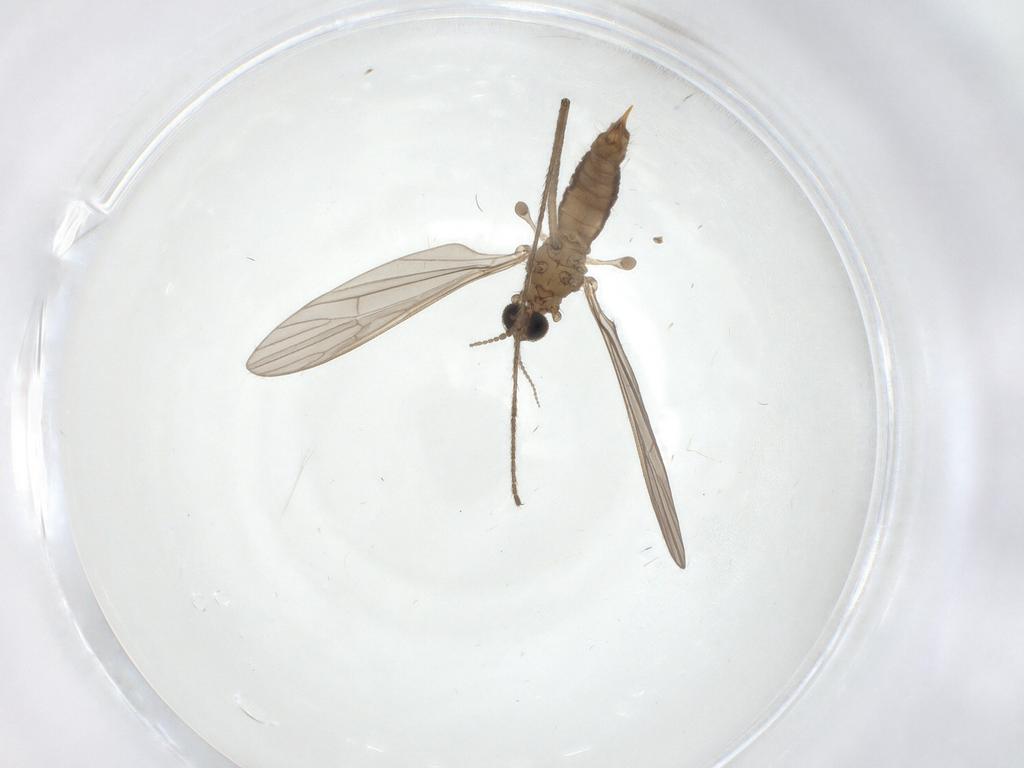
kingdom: Animalia
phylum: Arthropoda
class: Insecta
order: Diptera
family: Limoniidae
